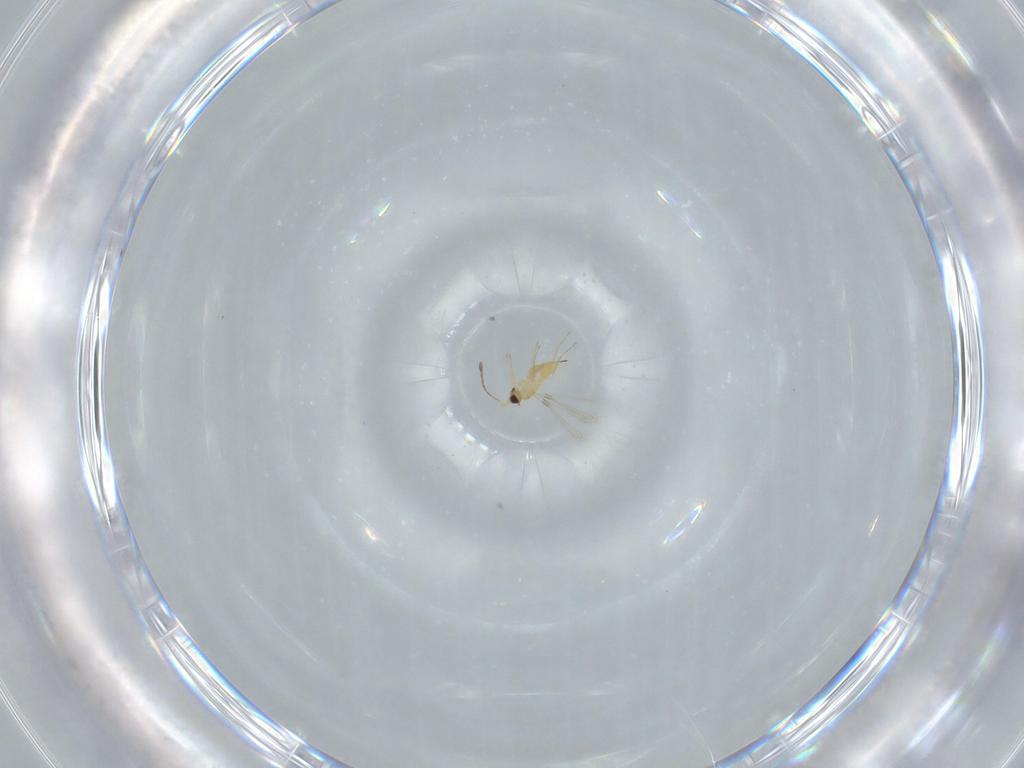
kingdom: Animalia
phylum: Arthropoda
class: Insecta
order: Hymenoptera
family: Mymaridae
